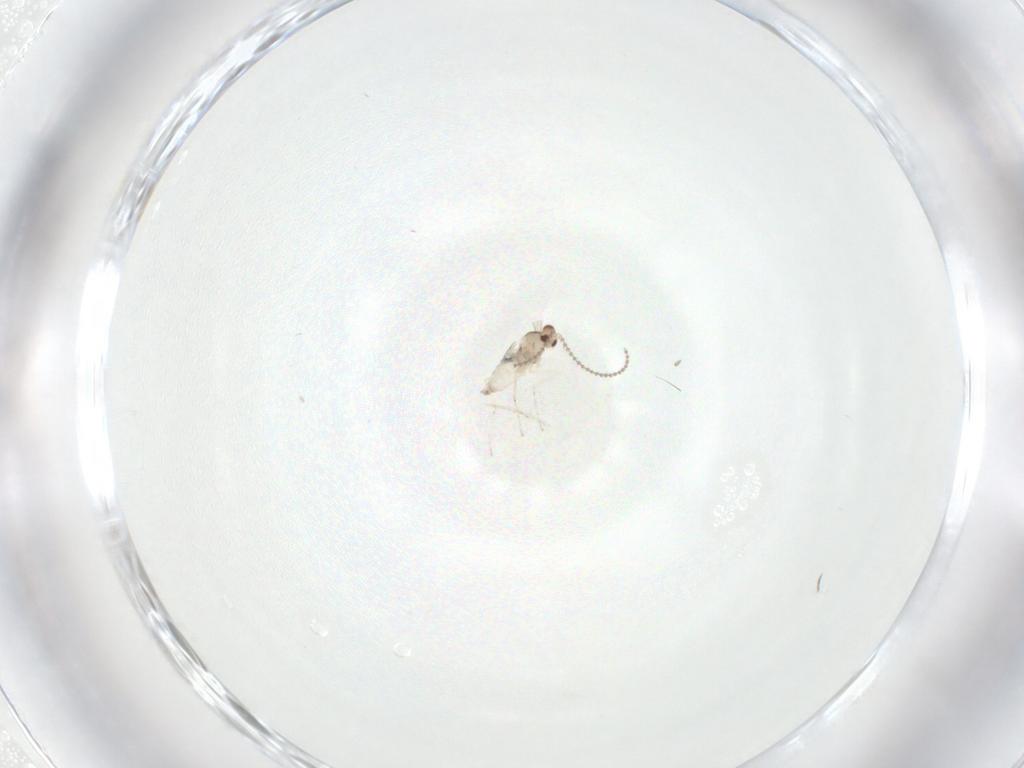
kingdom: Animalia
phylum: Arthropoda
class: Insecta
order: Diptera
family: Cecidomyiidae
